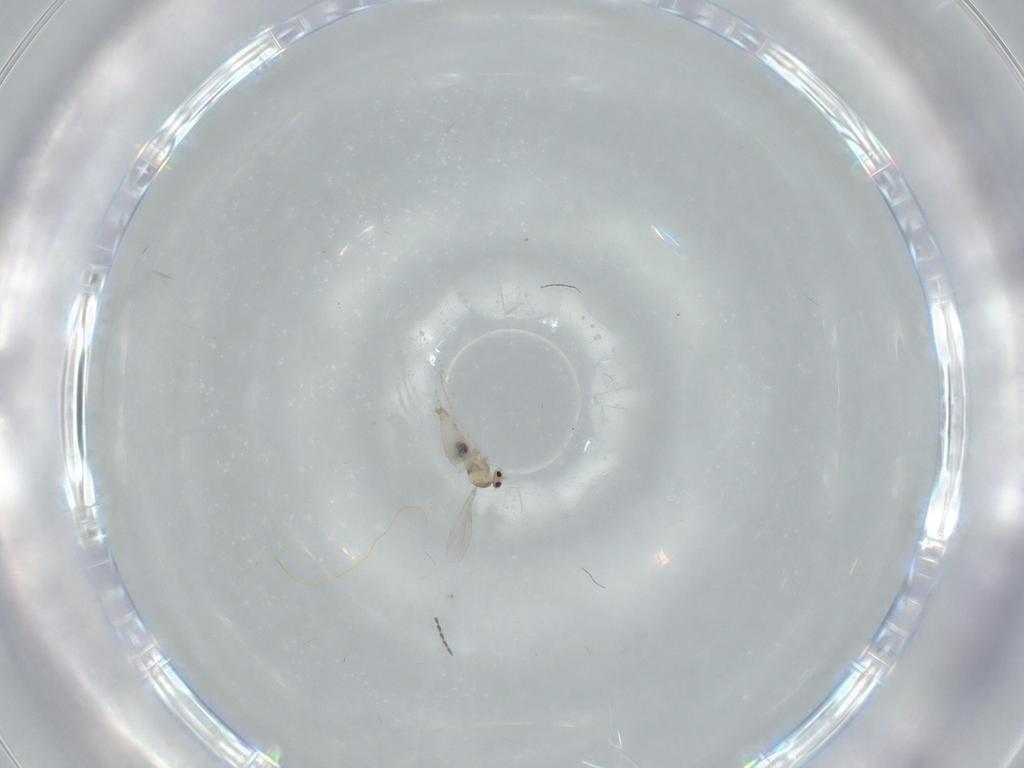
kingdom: Animalia
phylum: Arthropoda
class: Insecta
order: Diptera
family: Cecidomyiidae
